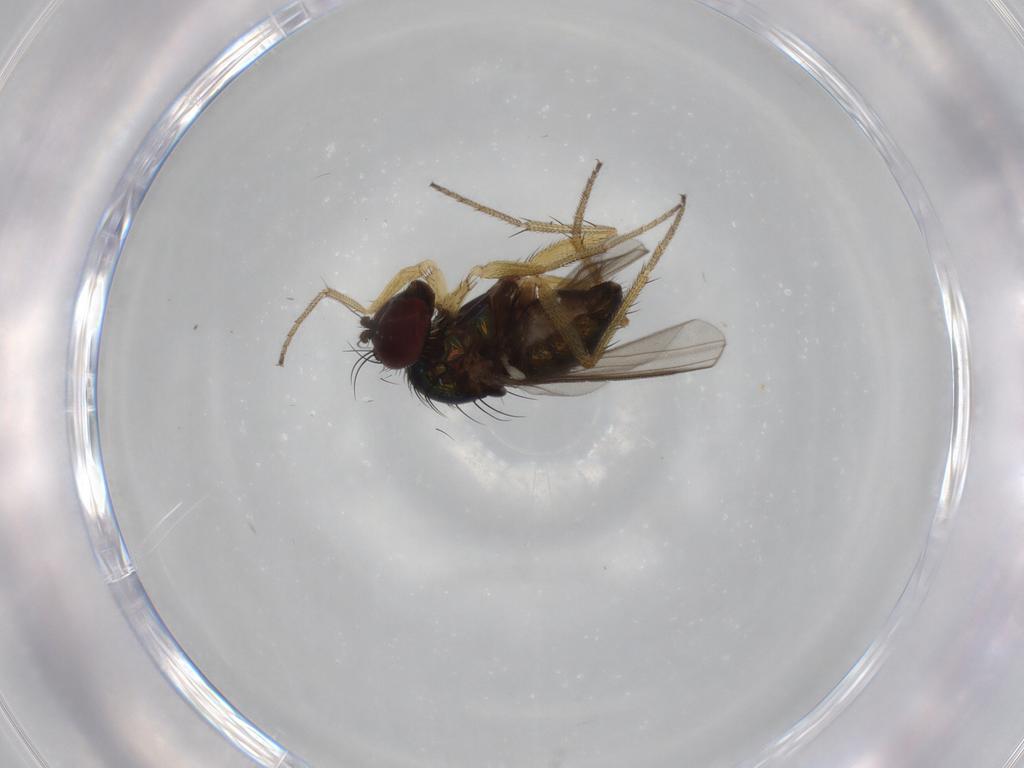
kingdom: Animalia
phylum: Arthropoda
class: Insecta
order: Diptera
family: Dolichopodidae
